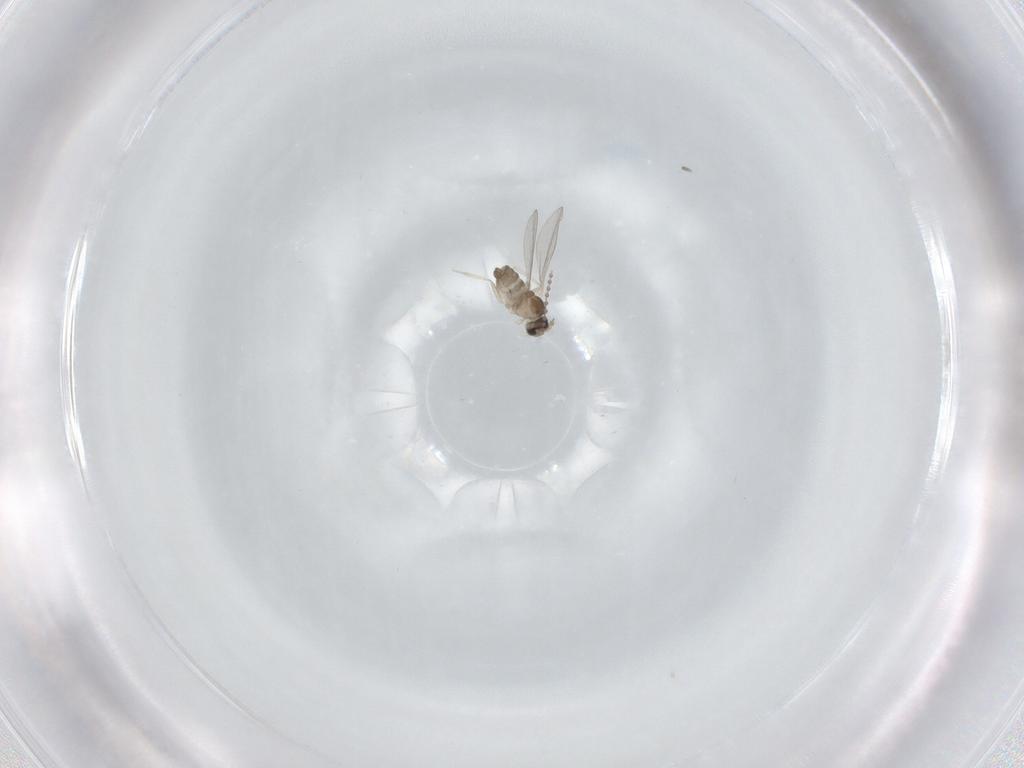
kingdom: Animalia
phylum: Arthropoda
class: Insecta
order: Diptera
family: Cecidomyiidae
